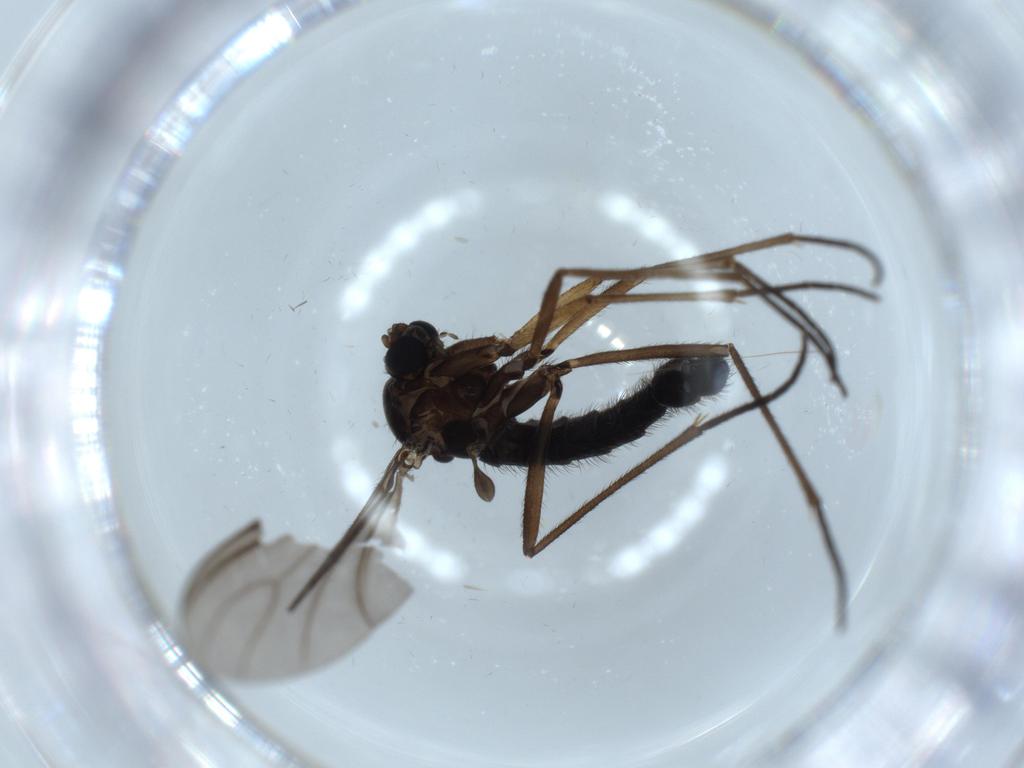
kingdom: Animalia
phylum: Arthropoda
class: Insecta
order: Diptera
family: Sciaridae
